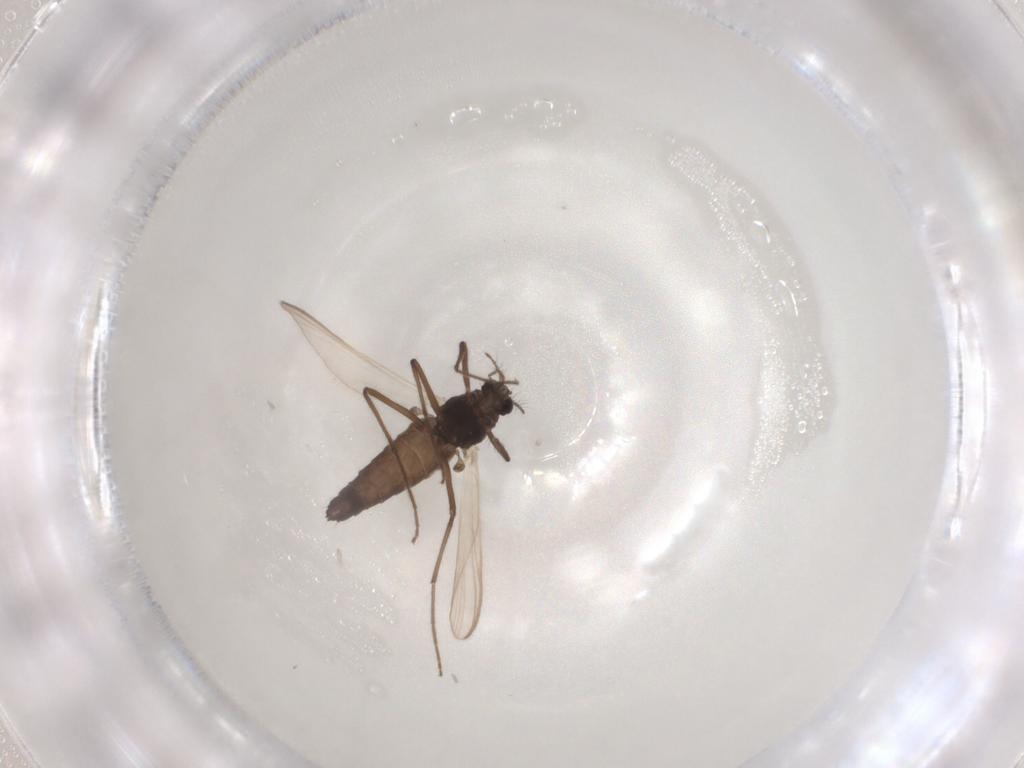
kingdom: Animalia
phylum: Arthropoda
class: Insecta
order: Diptera
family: Chironomidae
